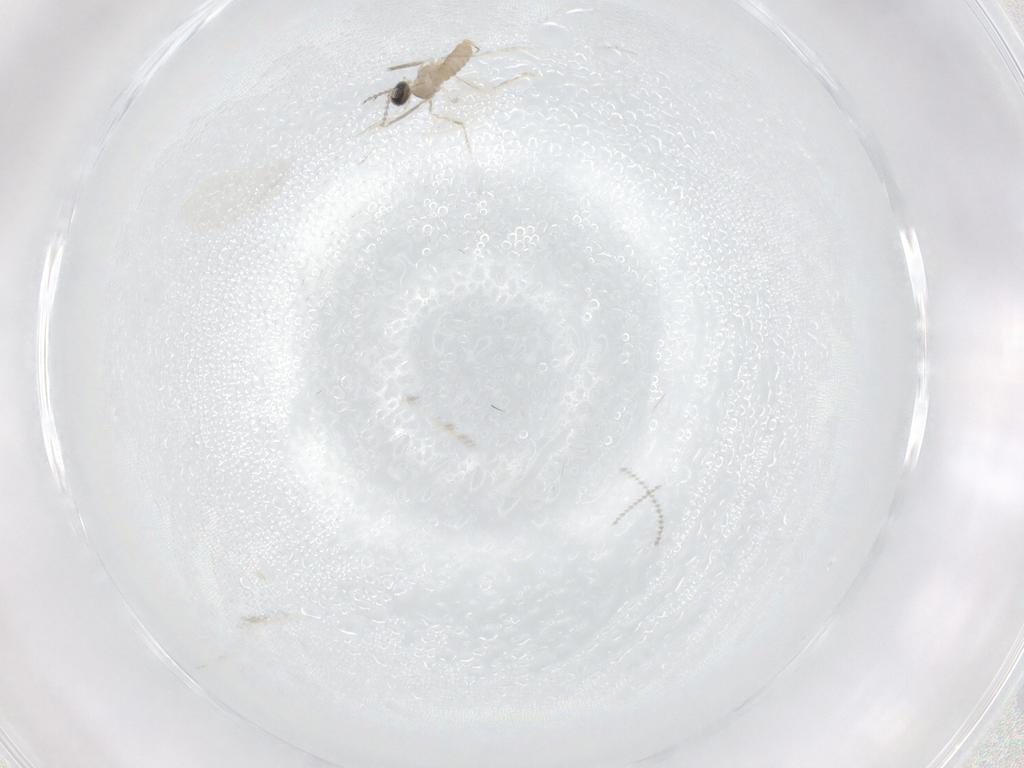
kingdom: Animalia
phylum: Arthropoda
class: Insecta
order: Diptera
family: Cecidomyiidae
